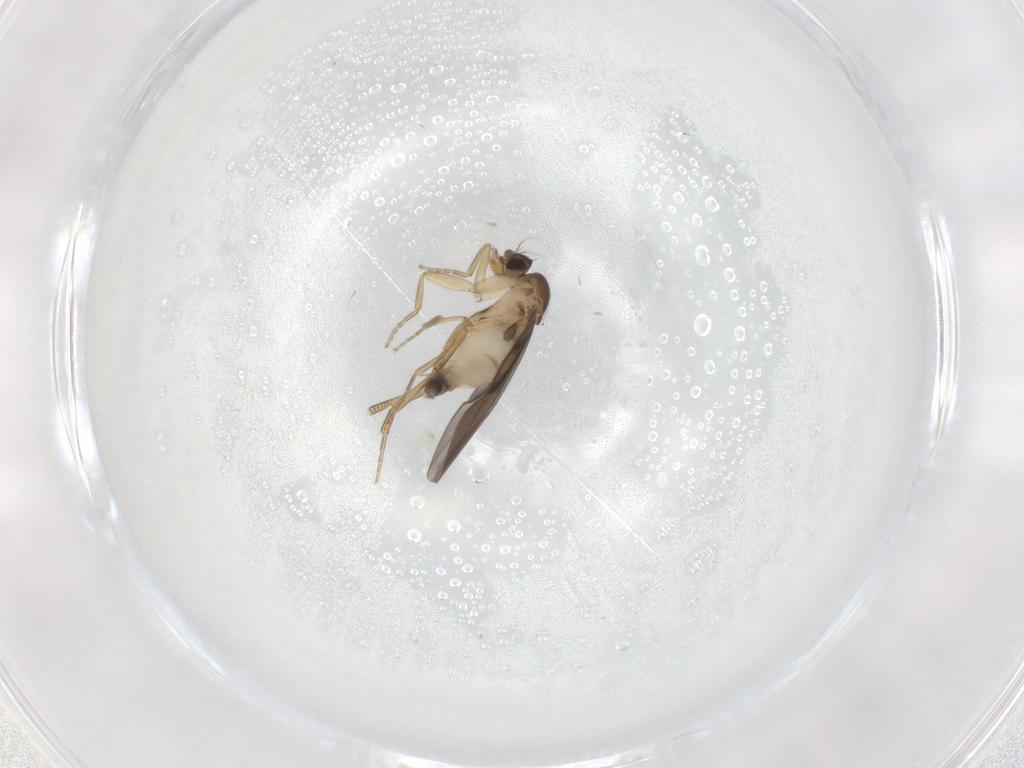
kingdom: Animalia
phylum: Arthropoda
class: Insecta
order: Diptera
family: Phoridae
